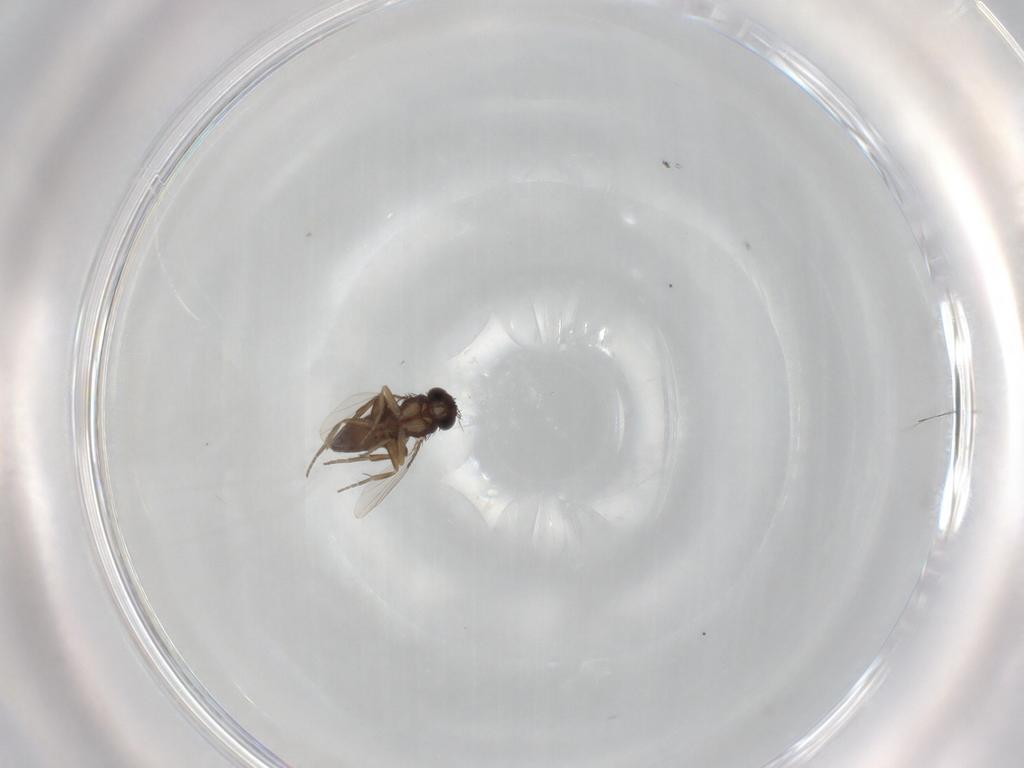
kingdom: Animalia
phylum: Arthropoda
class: Insecta
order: Diptera
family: Phoridae
